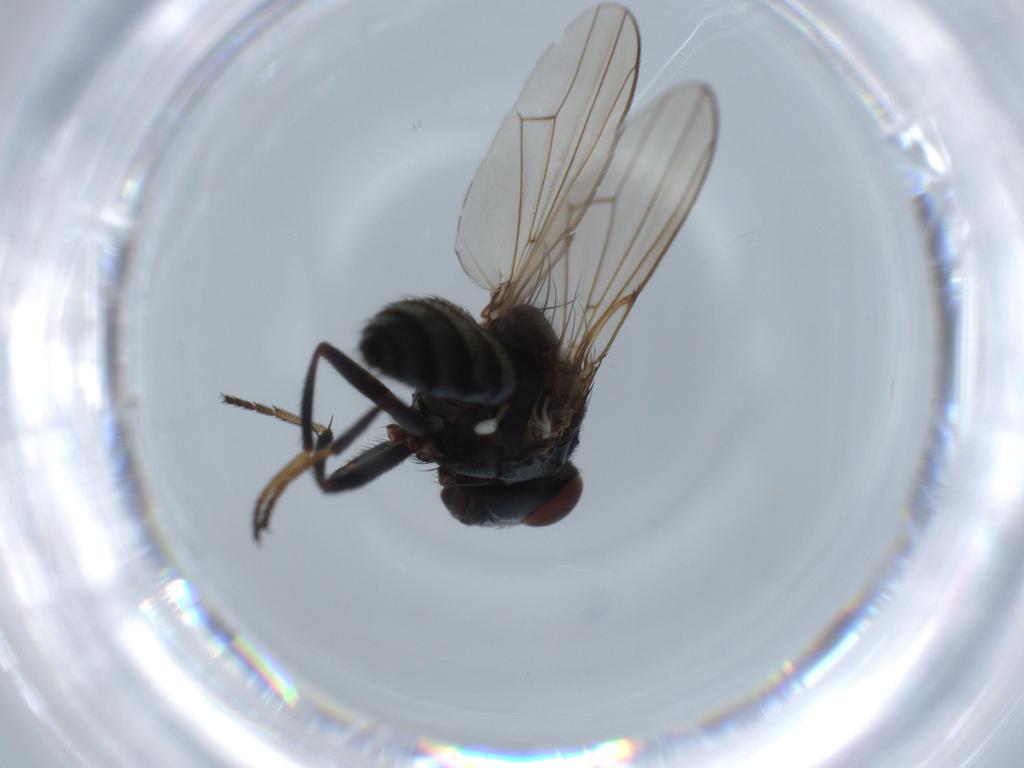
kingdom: Animalia
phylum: Arthropoda
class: Insecta
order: Diptera
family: Ephydridae
